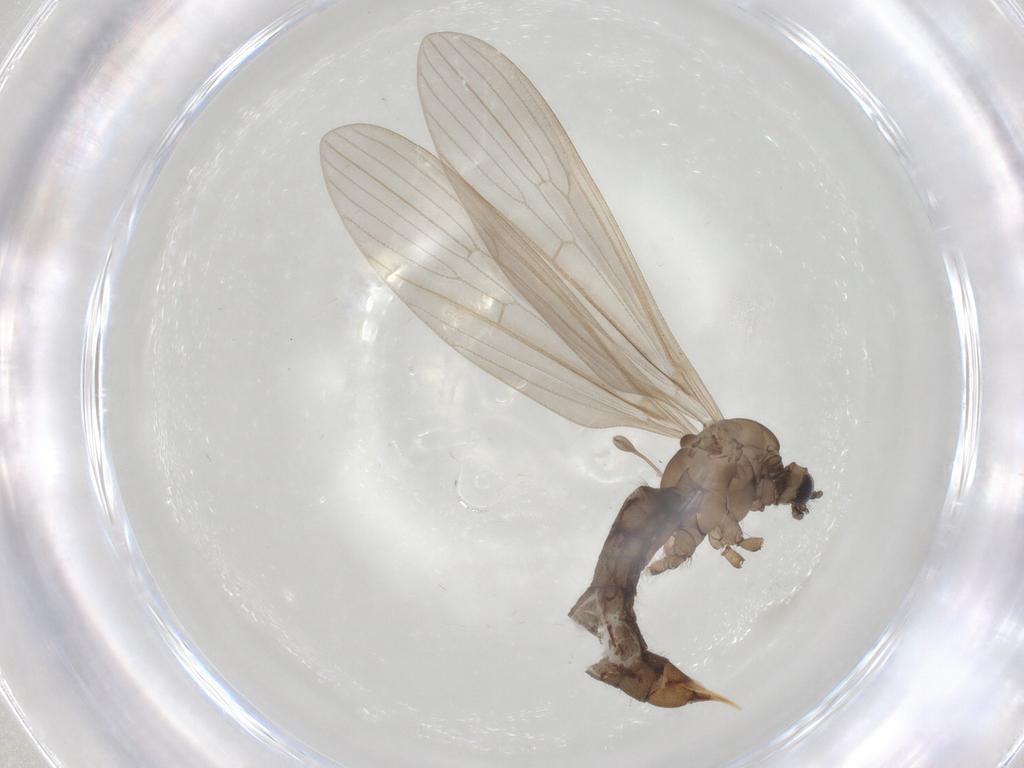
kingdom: Animalia
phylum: Arthropoda
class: Insecta
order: Diptera
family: Limoniidae
